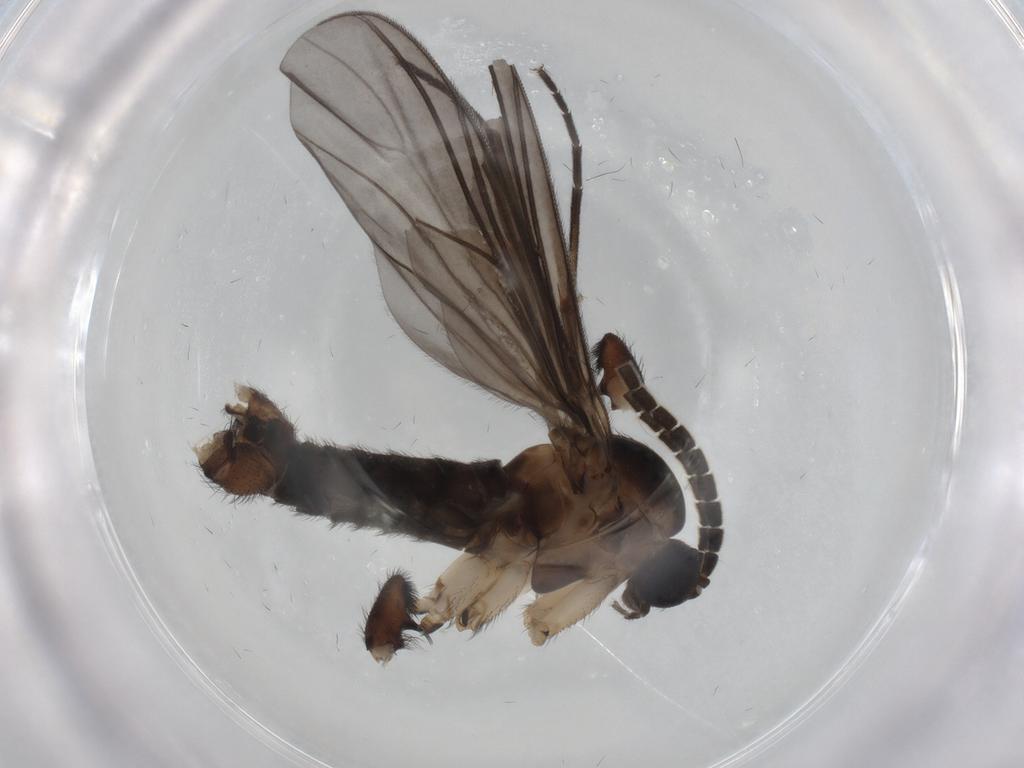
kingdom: Animalia
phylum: Arthropoda
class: Insecta
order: Diptera
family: Sciaridae
